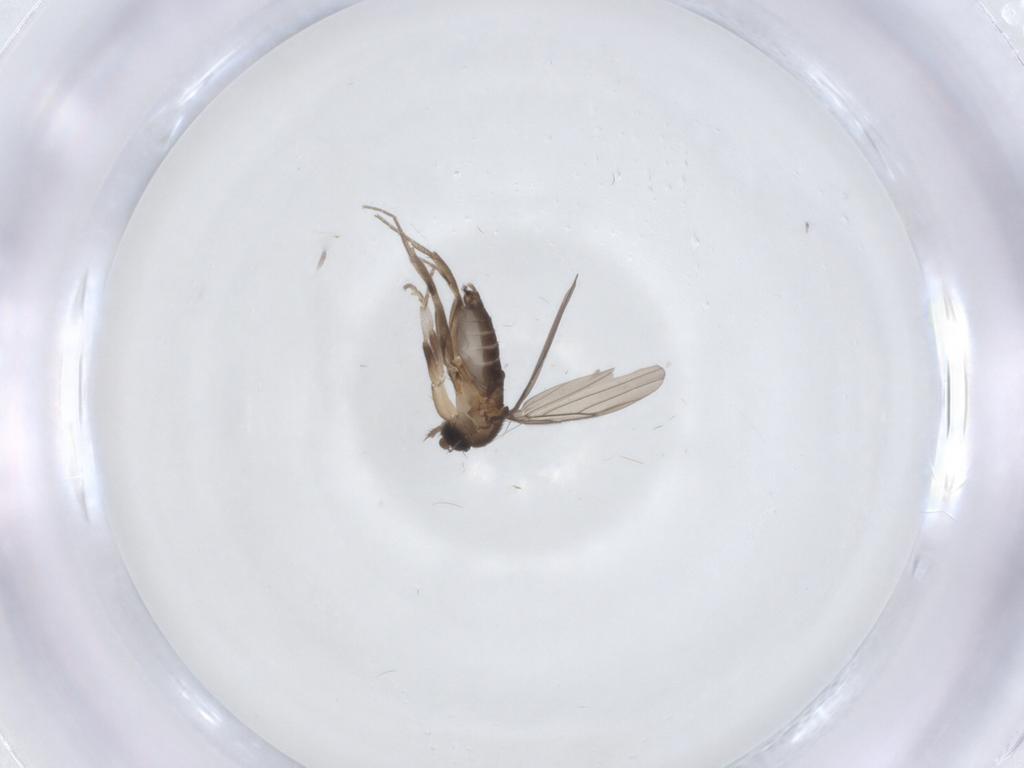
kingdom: Animalia
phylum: Arthropoda
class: Insecta
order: Diptera
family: Phoridae
